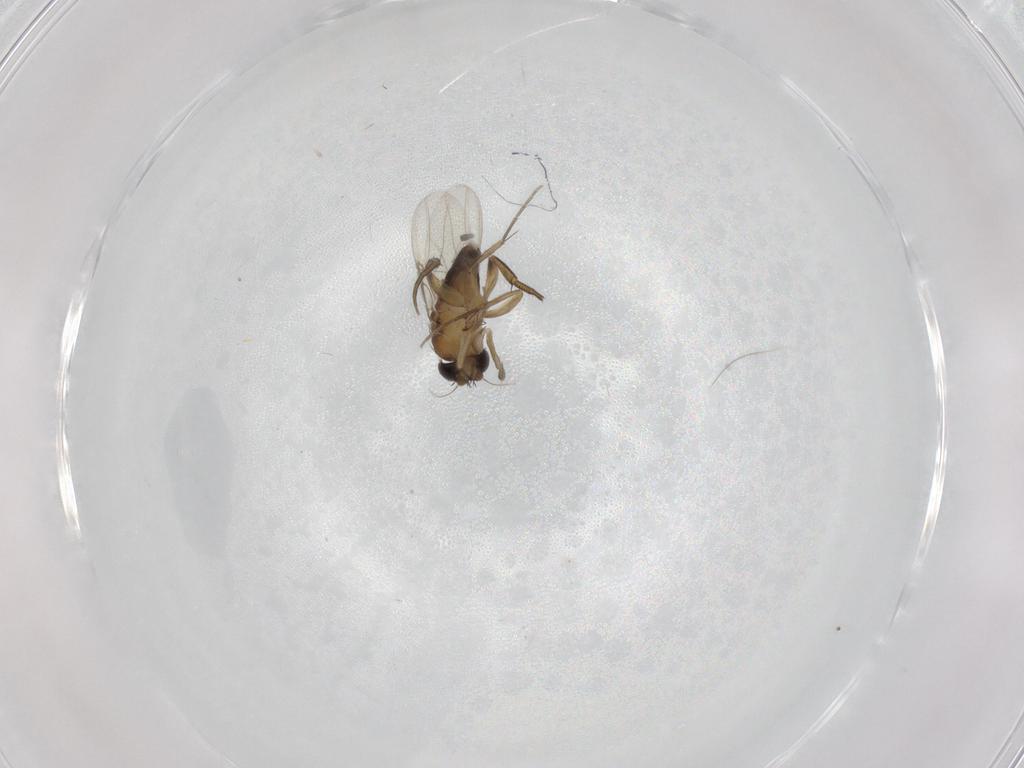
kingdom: Animalia
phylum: Arthropoda
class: Insecta
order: Diptera
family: Phoridae
